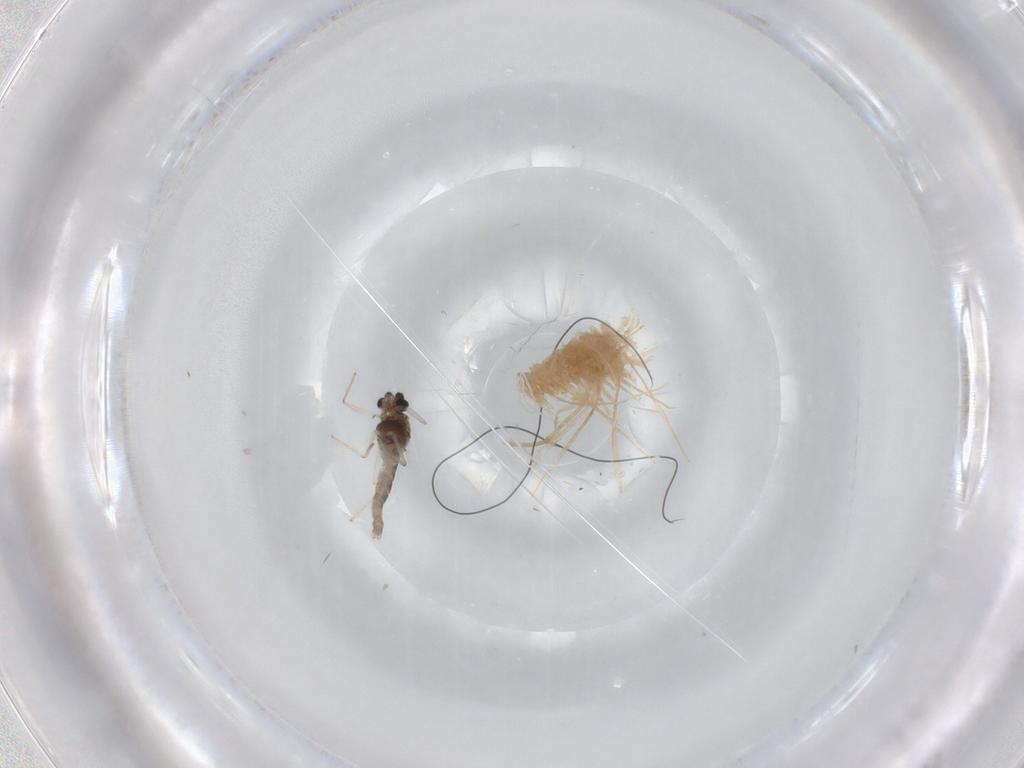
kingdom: Animalia
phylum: Arthropoda
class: Insecta
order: Diptera
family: Chironomidae
